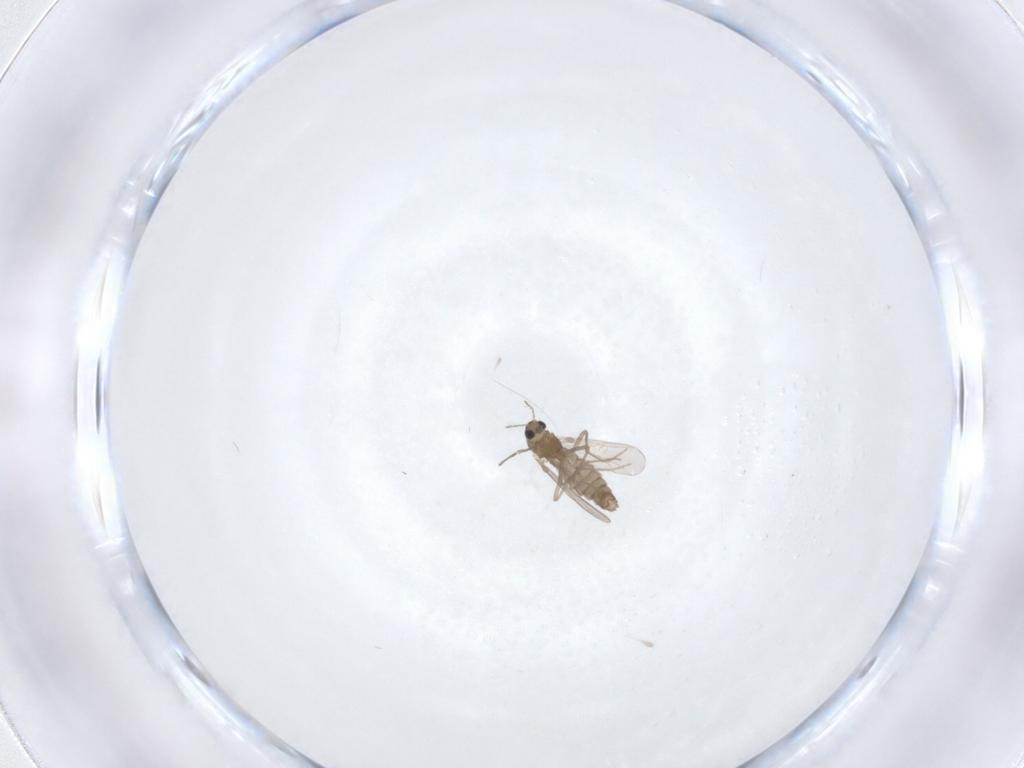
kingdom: Animalia
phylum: Arthropoda
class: Insecta
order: Diptera
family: Chironomidae
